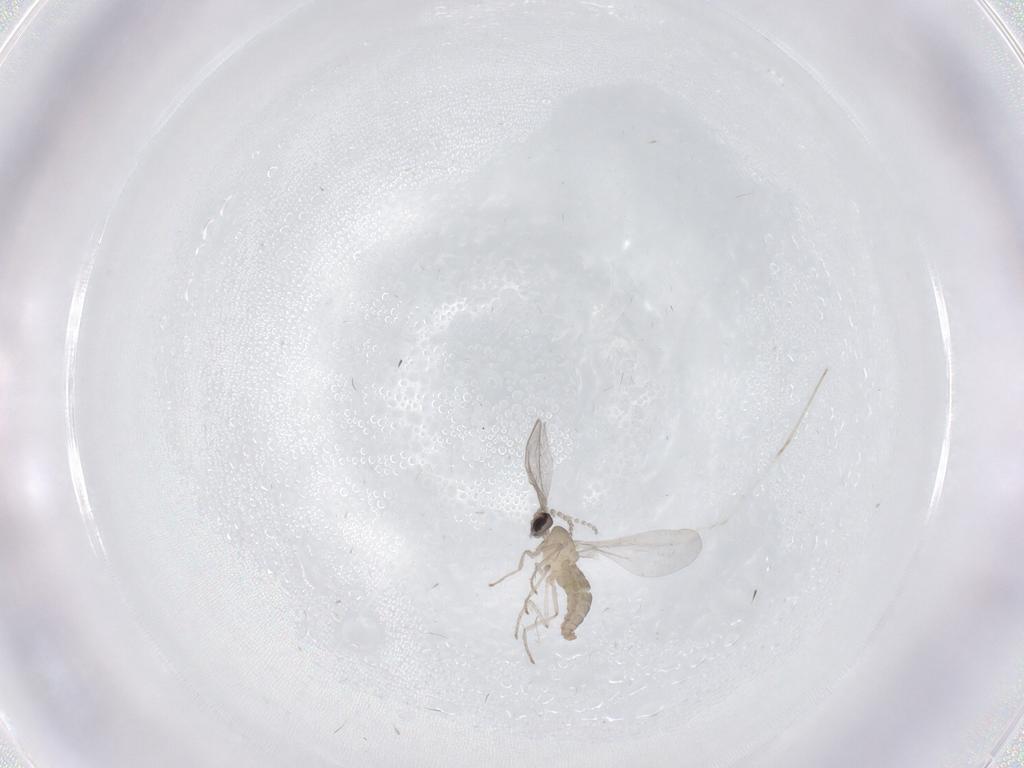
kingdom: Animalia
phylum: Arthropoda
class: Insecta
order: Diptera
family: Cecidomyiidae
